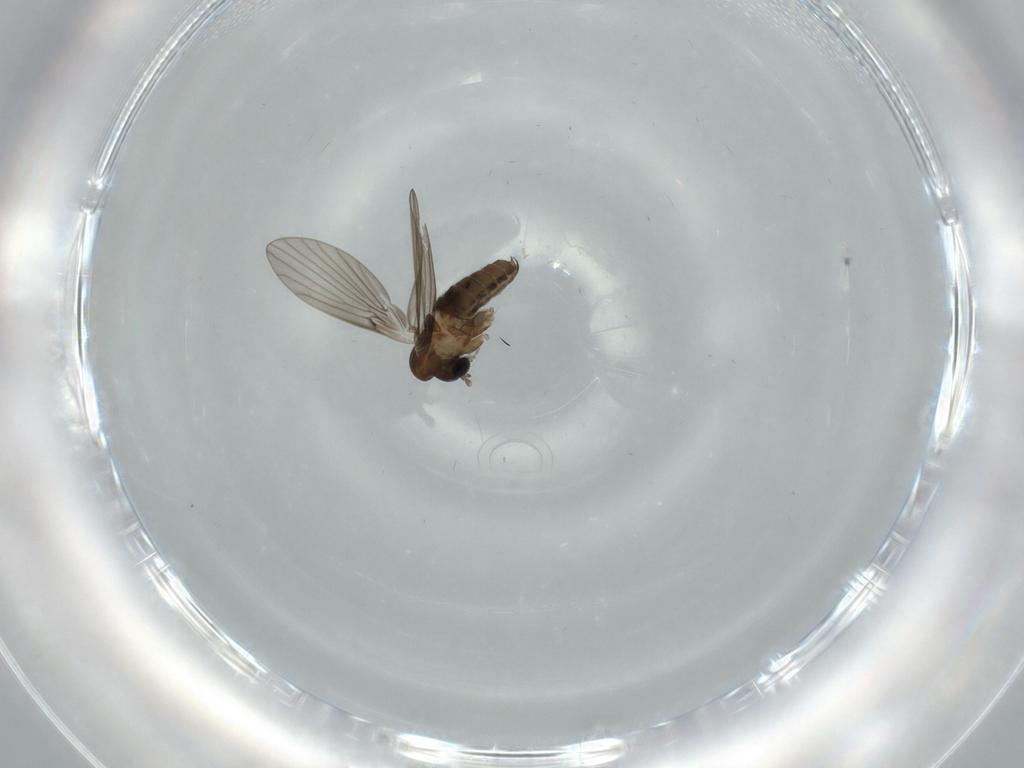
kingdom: Animalia
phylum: Arthropoda
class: Insecta
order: Diptera
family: Psychodidae
